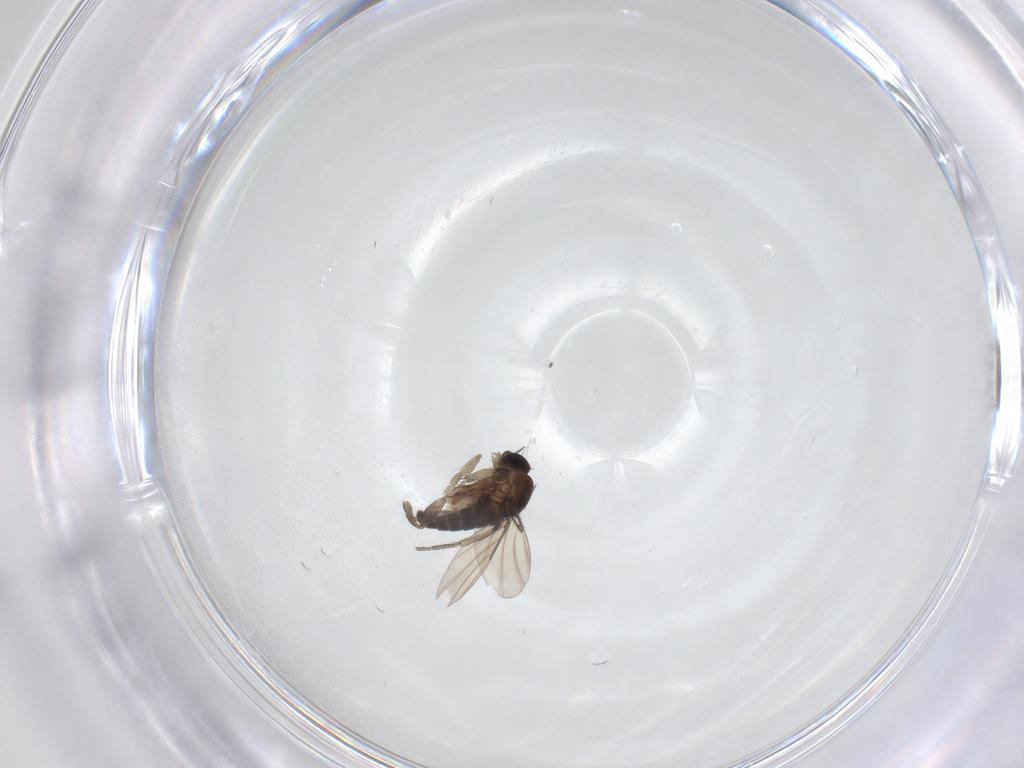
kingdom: Animalia
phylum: Arthropoda
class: Insecta
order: Diptera
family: Phoridae
